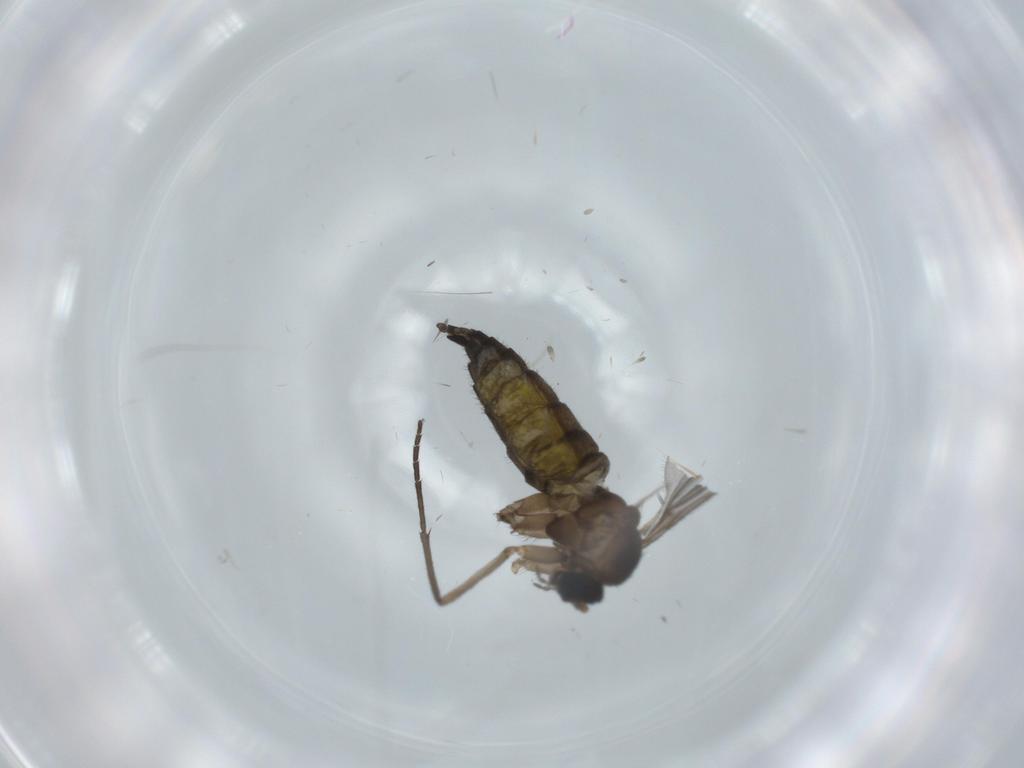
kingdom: Animalia
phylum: Arthropoda
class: Insecta
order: Diptera
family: Sciaridae
